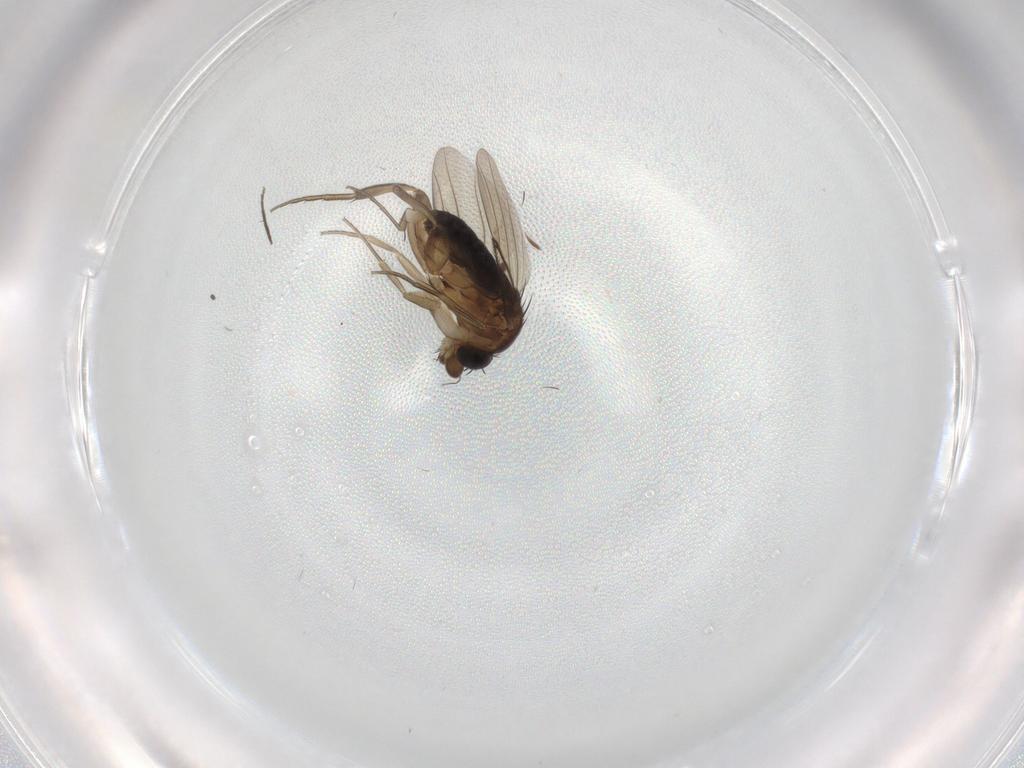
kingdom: Animalia
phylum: Arthropoda
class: Insecta
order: Diptera
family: Phoridae
